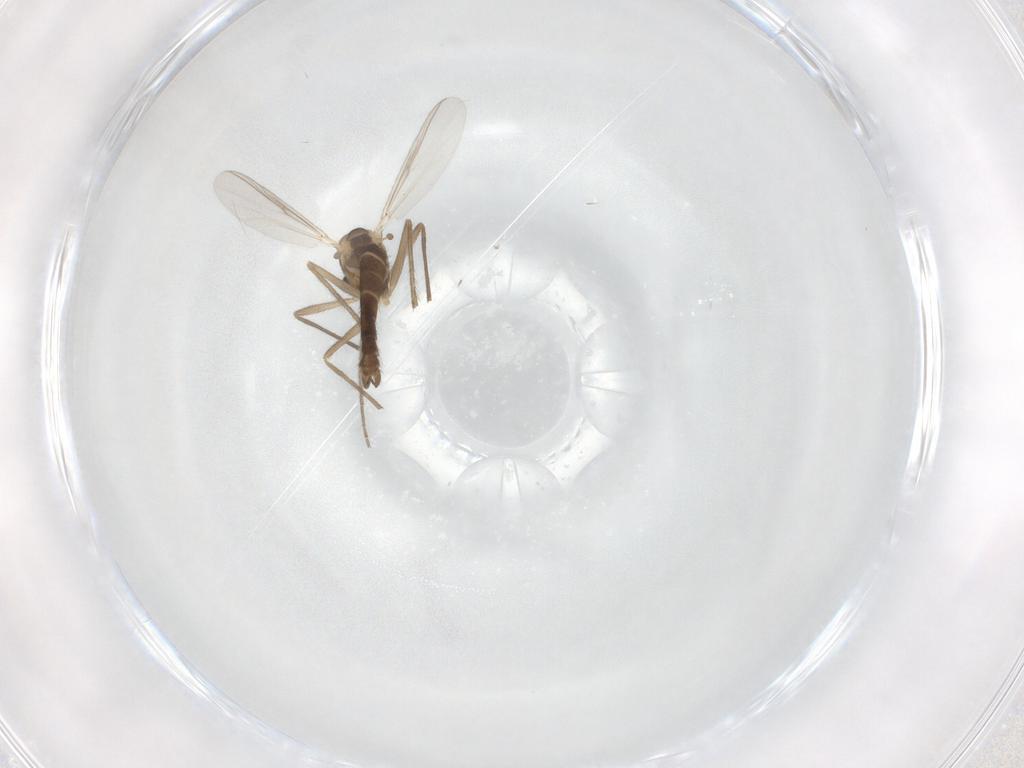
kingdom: Animalia
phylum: Arthropoda
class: Insecta
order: Diptera
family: Chironomidae
